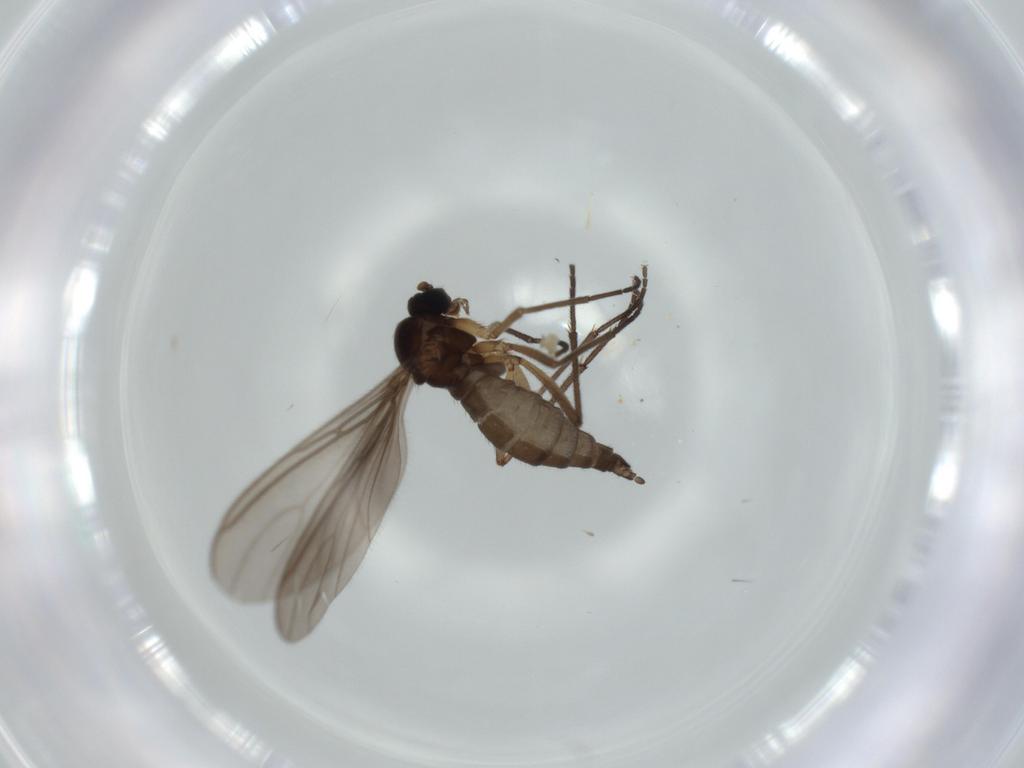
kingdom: Animalia
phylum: Arthropoda
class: Insecta
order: Diptera
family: Sciaridae
